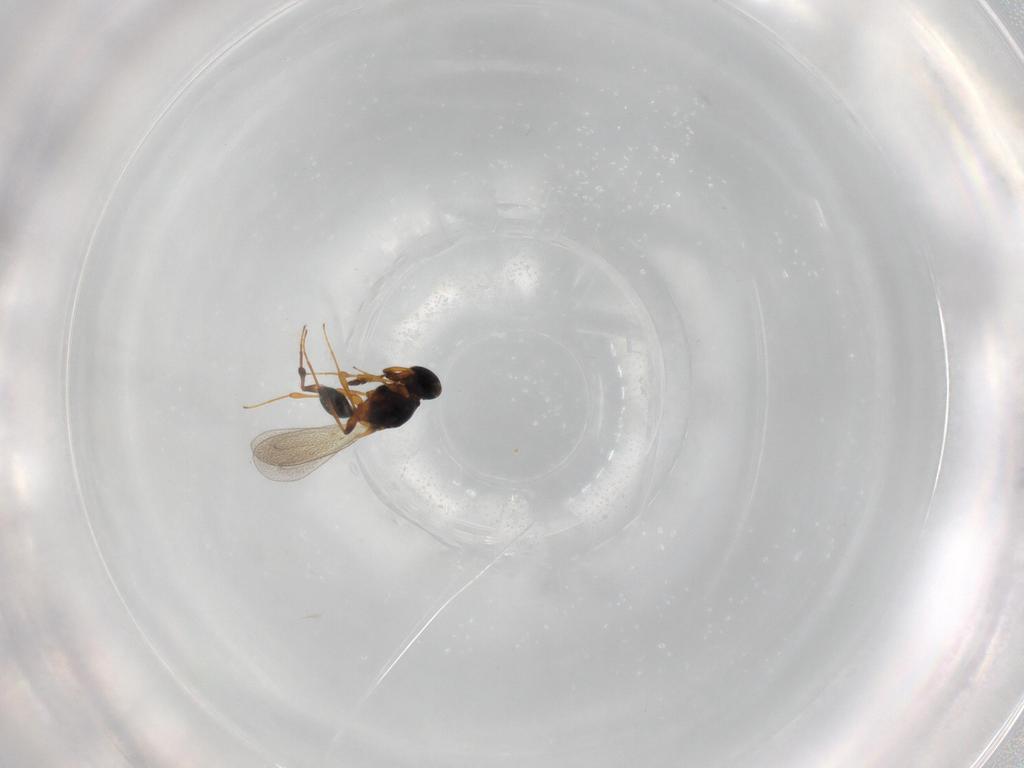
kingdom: Animalia
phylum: Arthropoda
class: Insecta
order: Hymenoptera
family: Platygastridae
